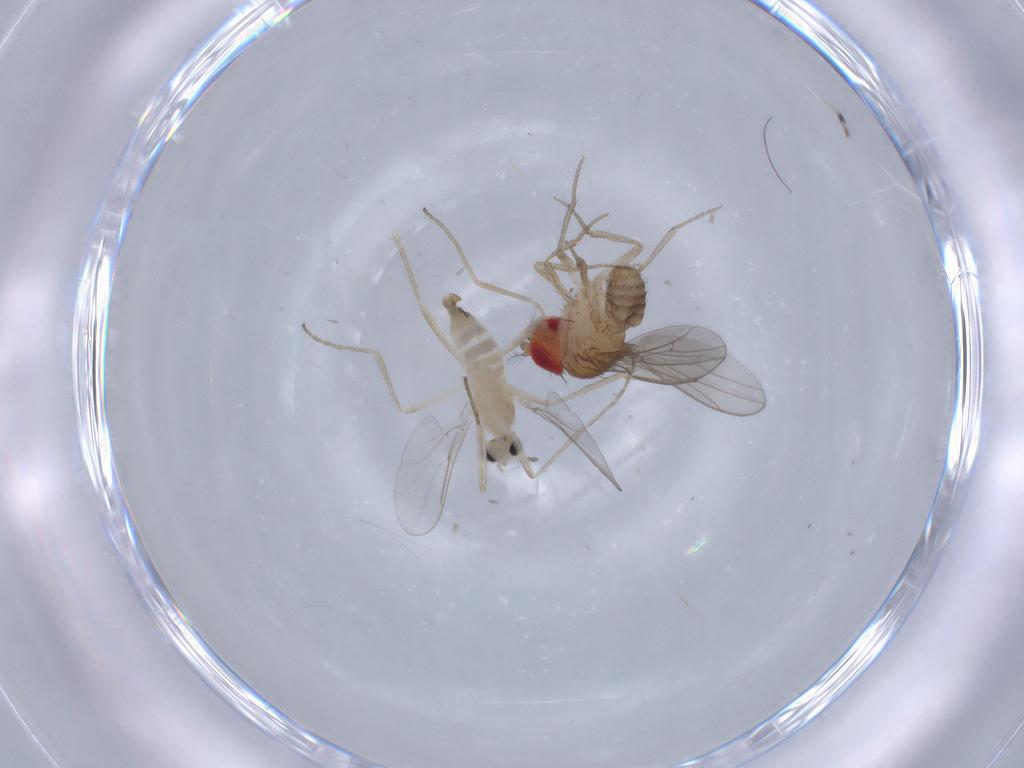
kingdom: Animalia
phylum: Arthropoda
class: Insecta
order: Diptera
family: Drosophilidae
